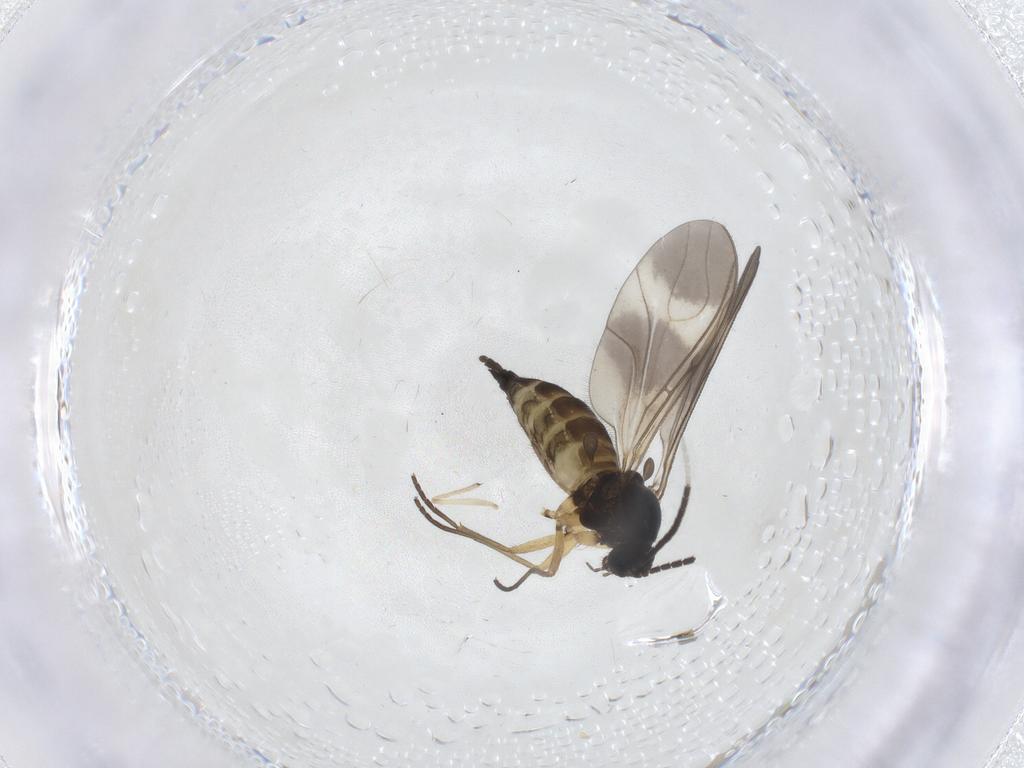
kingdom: Animalia
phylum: Arthropoda
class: Insecta
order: Diptera
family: Sciaridae
